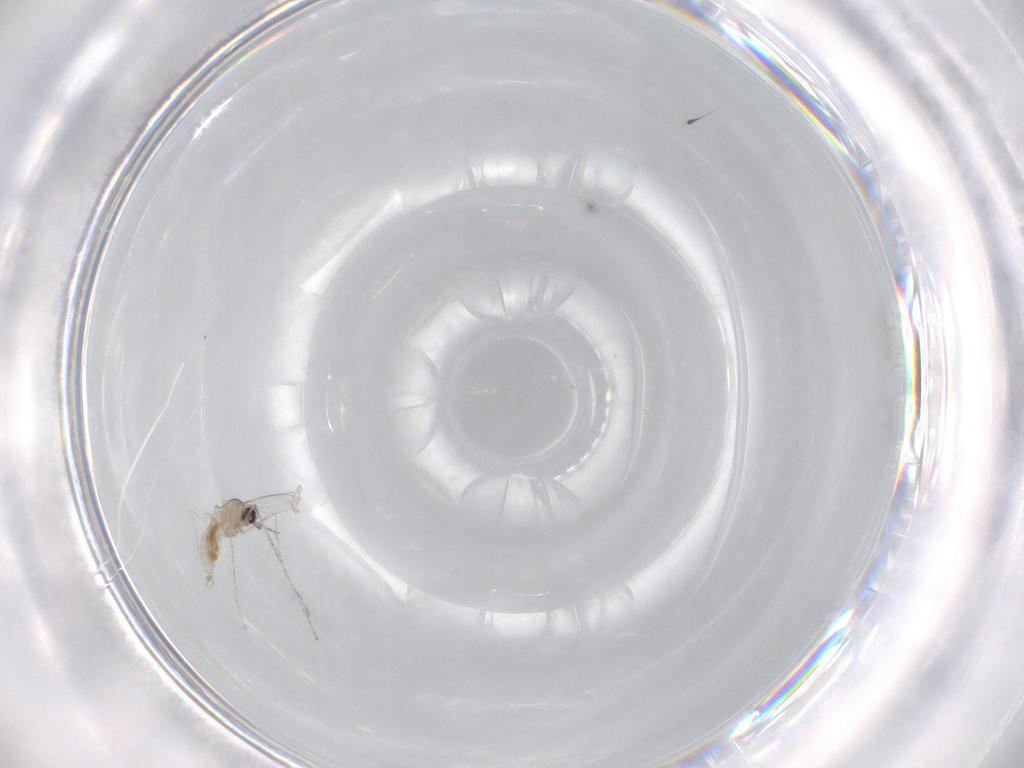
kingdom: Animalia
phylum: Arthropoda
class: Insecta
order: Diptera
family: Cecidomyiidae
